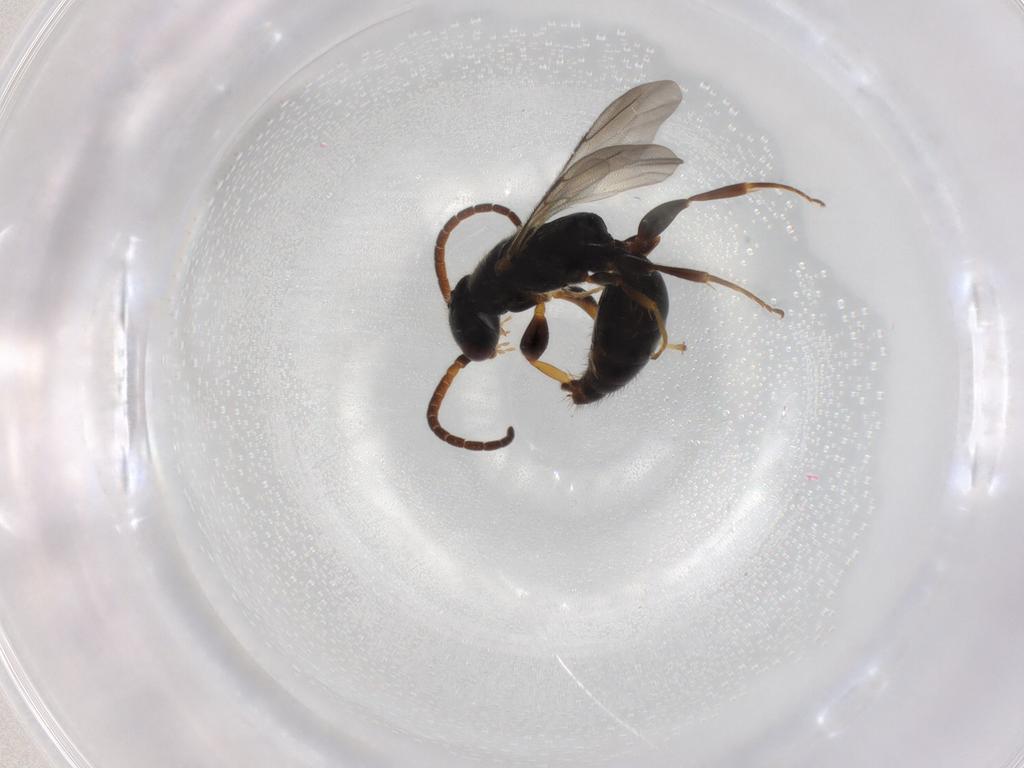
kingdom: Animalia
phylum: Arthropoda
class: Insecta
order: Hymenoptera
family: Bethylidae
